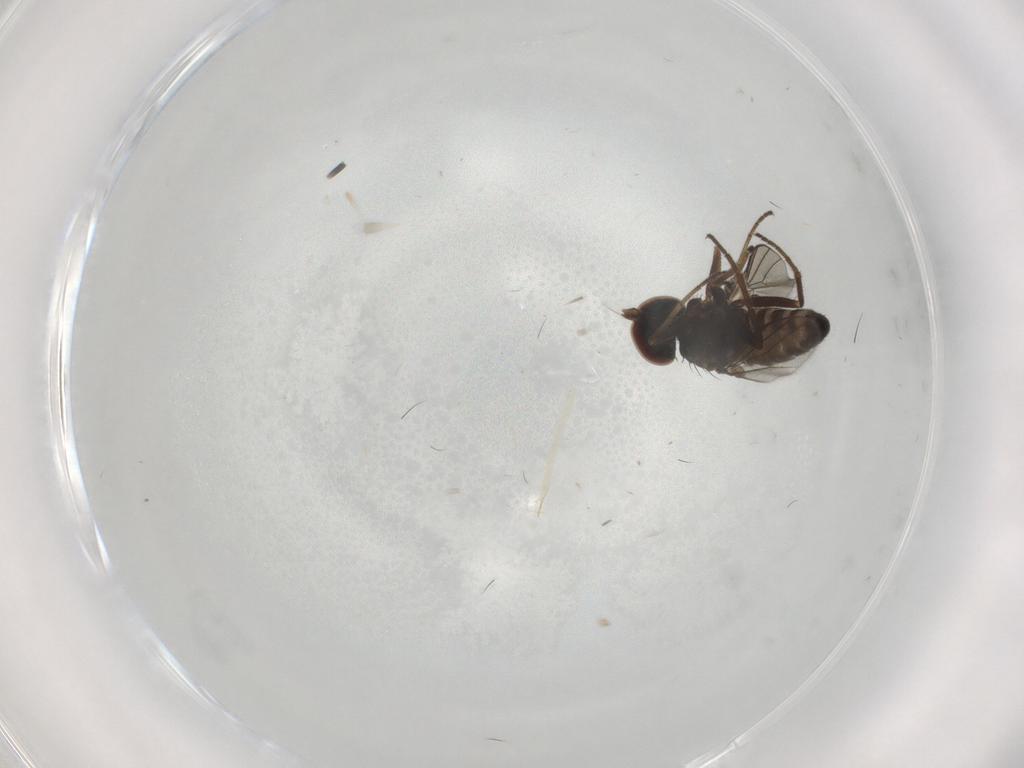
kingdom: Animalia
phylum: Arthropoda
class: Insecta
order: Diptera
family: Dolichopodidae
